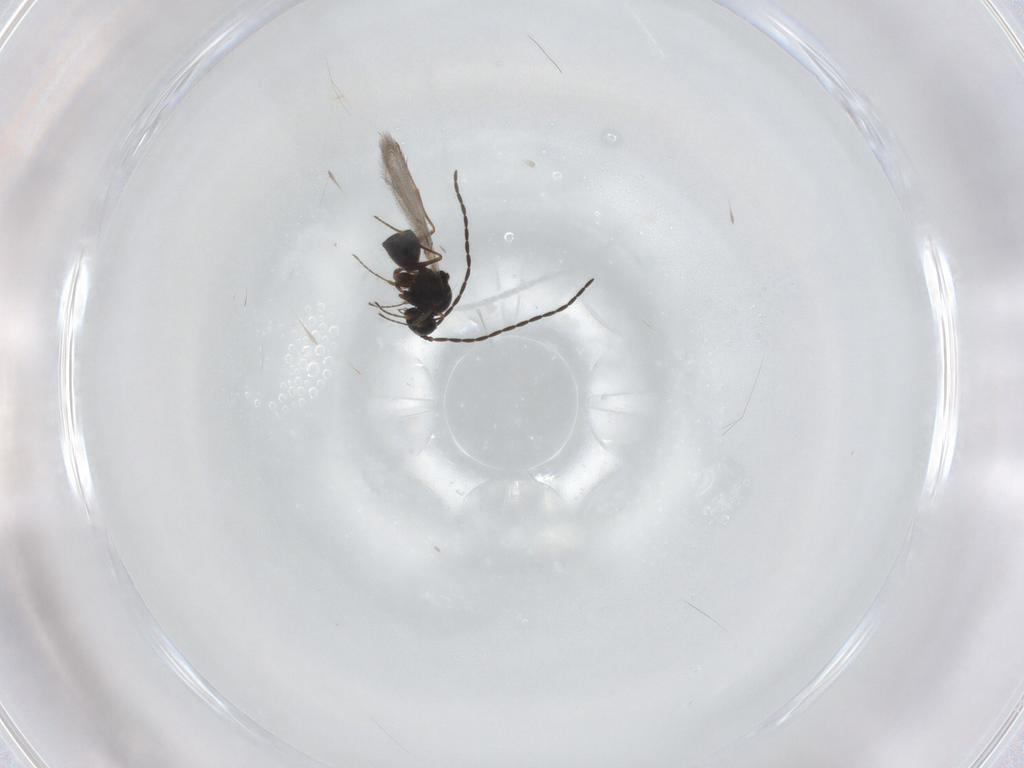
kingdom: Animalia
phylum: Arthropoda
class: Insecta
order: Hymenoptera
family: Figitidae
